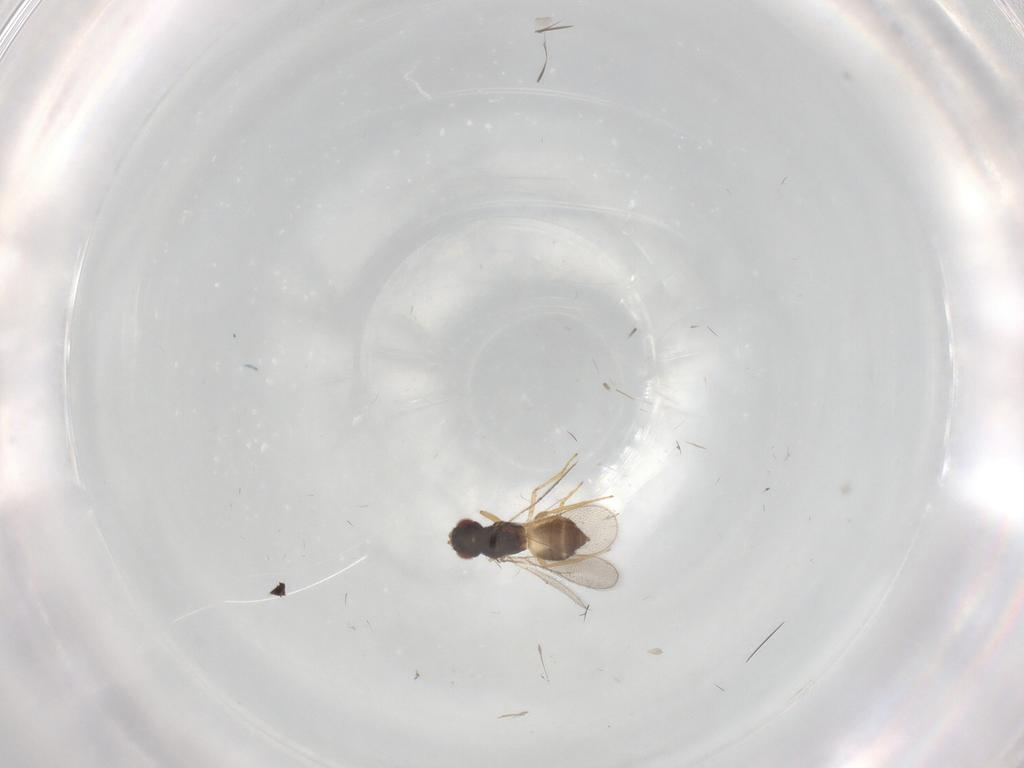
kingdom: Animalia
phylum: Arthropoda
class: Insecta
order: Hymenoptera
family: Eulophidae
